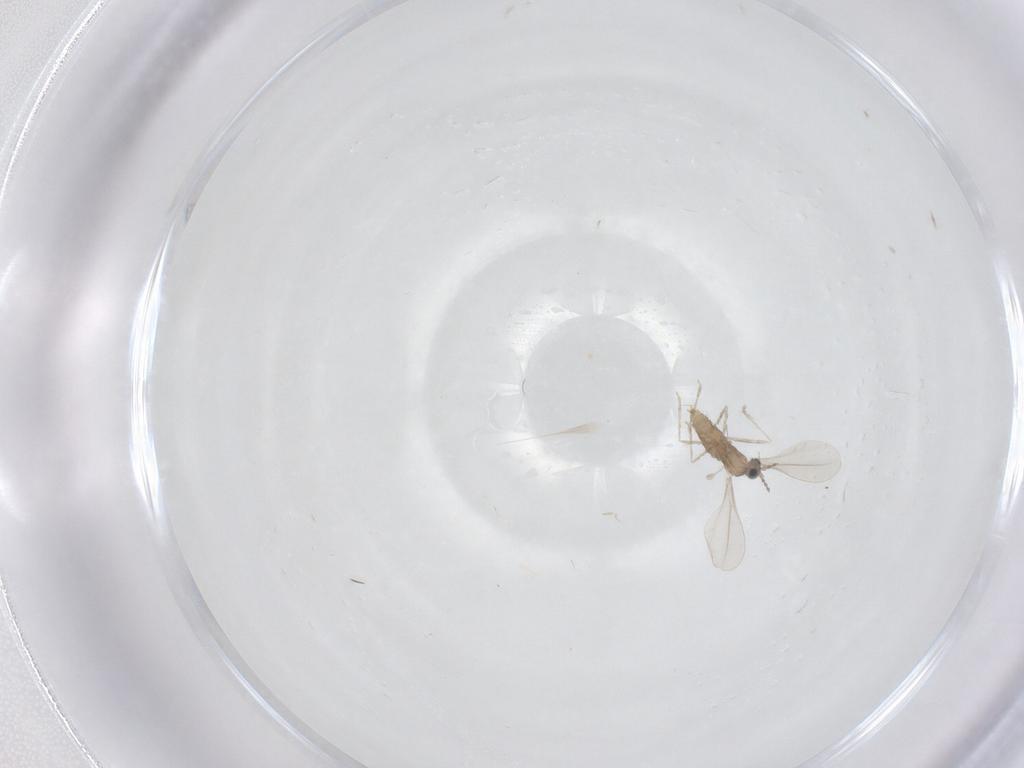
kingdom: Animalia
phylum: Arthropoda
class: Insecta
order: Diptera
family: Cecidomyiidae
